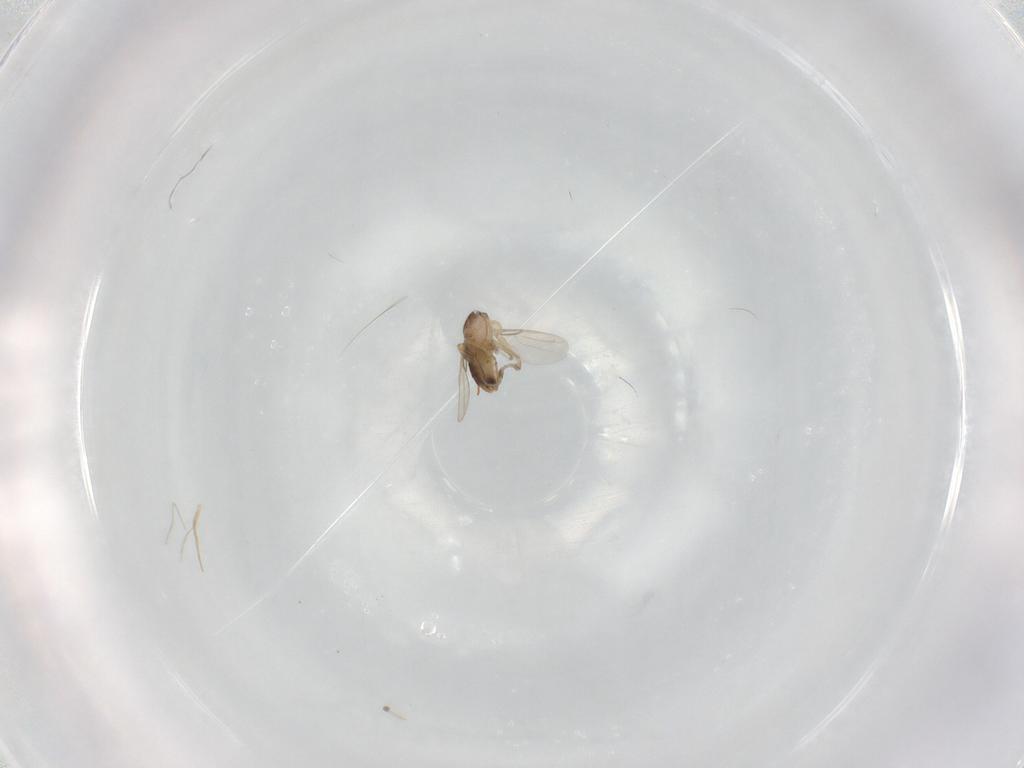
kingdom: Animalia
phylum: Arthropoda
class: Insecta
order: Diptera
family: Phoridae
